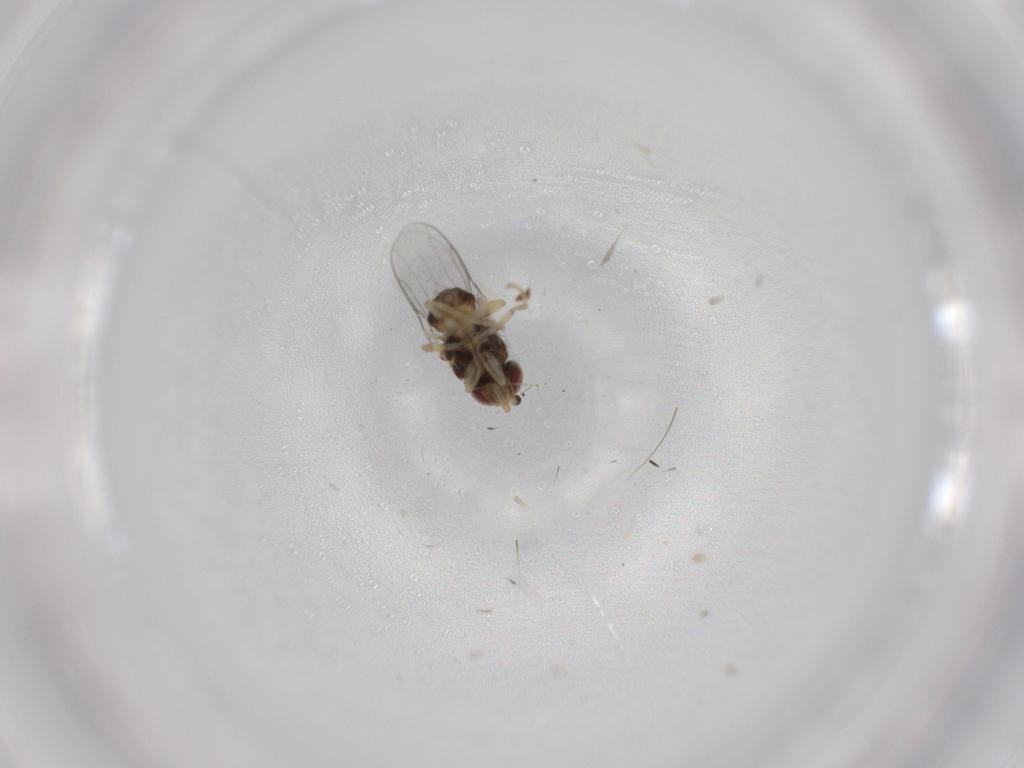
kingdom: Animalia
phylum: Arthropoda
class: Insecta
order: Diptera
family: Chloropidae
